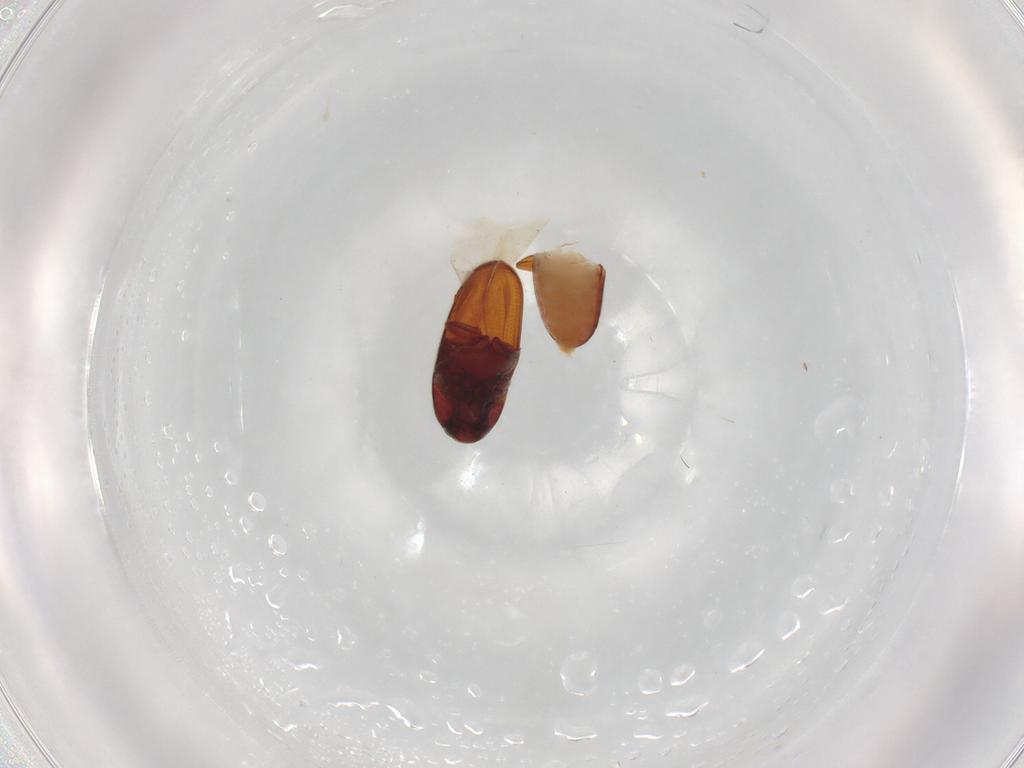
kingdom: Animalia
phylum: Arthropoda
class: Insecta
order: Coleoptera
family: Throscidae
